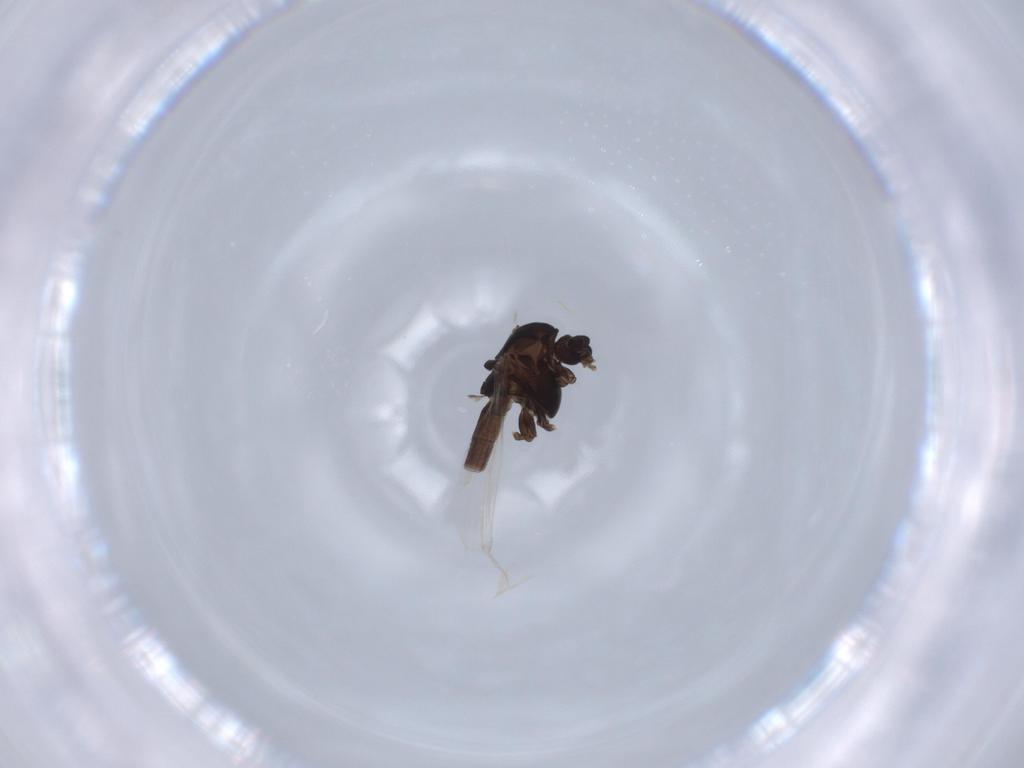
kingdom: Animalia
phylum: Arthropoda
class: Insecta
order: Diptera
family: Chironomidae
